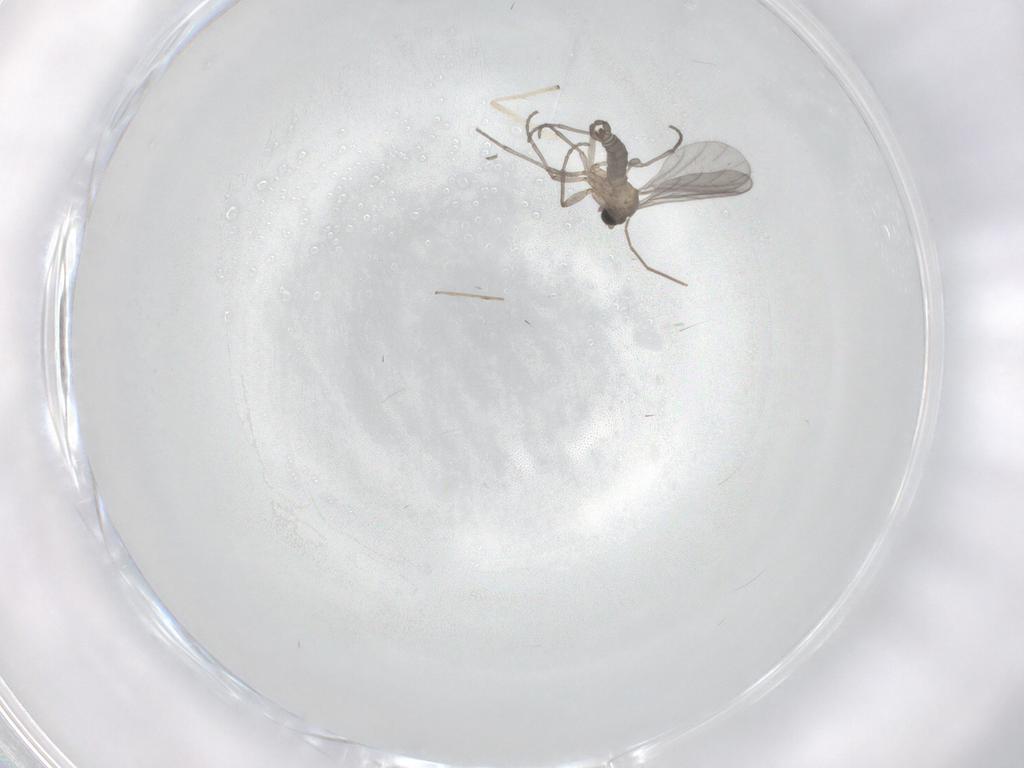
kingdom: Animalia
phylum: Arthropoda
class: Insecta
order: Diptera
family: Sciaridae
